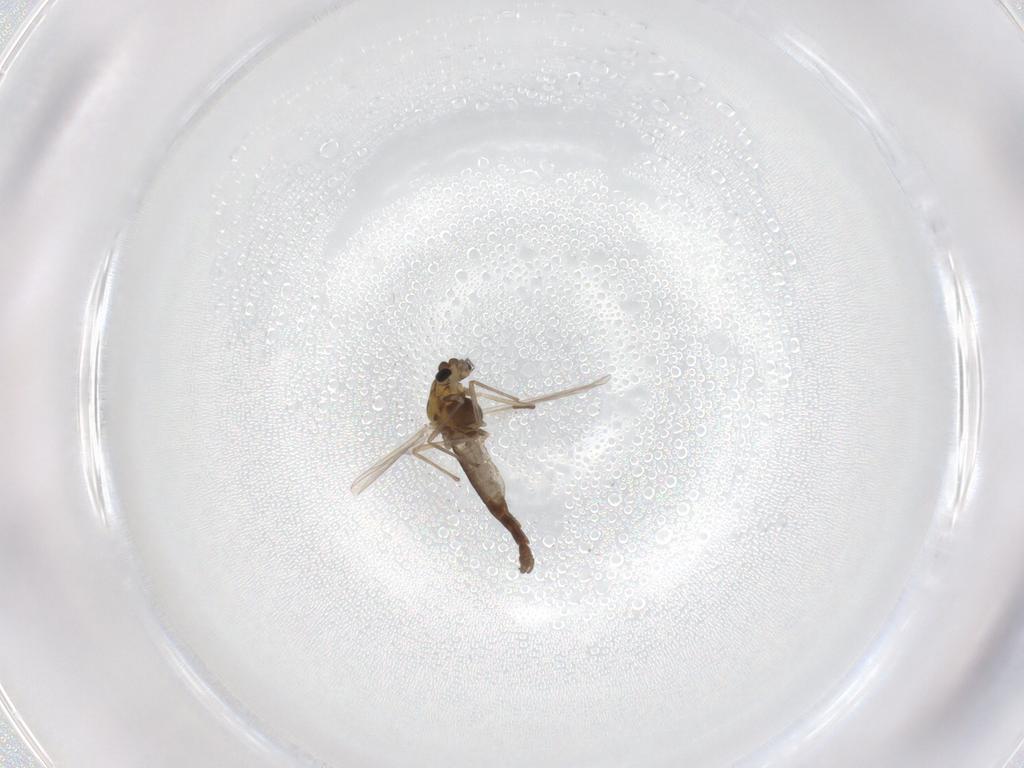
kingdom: Animalia
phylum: Arthropoda
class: Insecta
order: Diptera
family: Chironomidae
